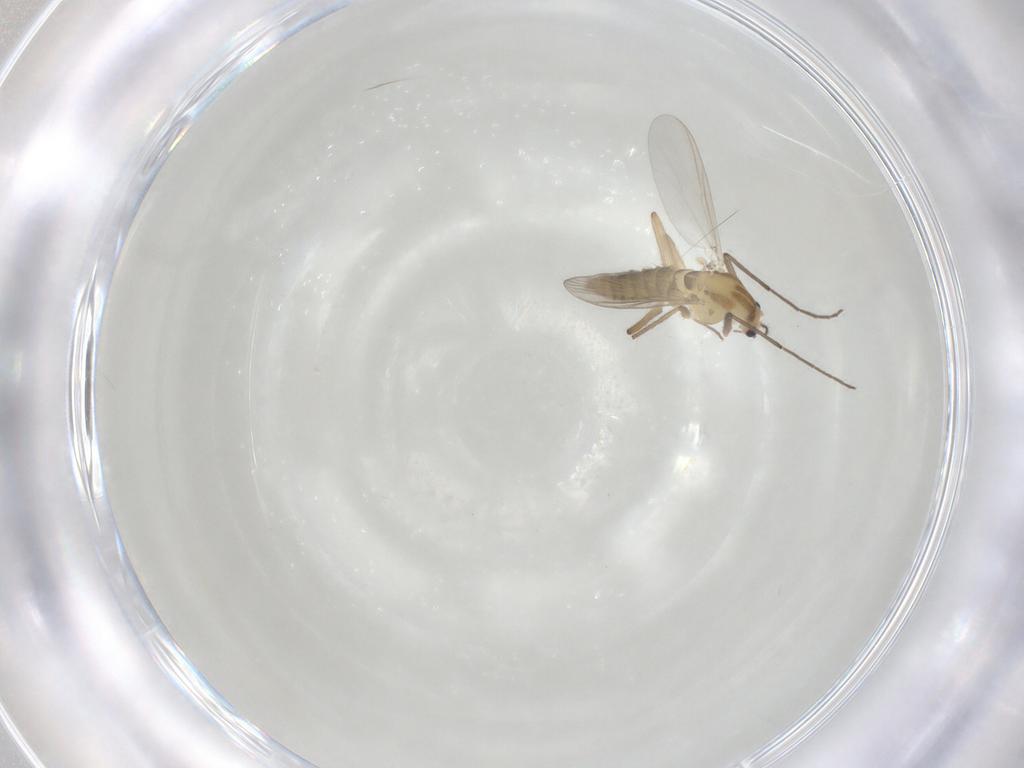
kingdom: Animalia
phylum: Arthropoda
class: Insecta
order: Diptera
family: Chironomidae
